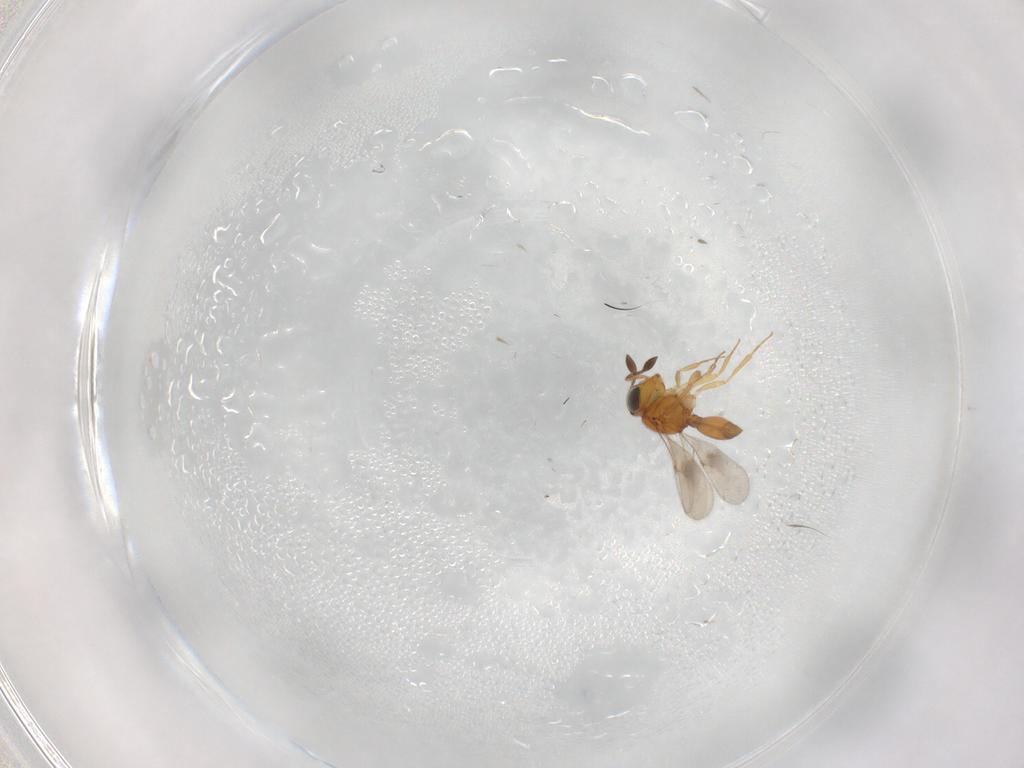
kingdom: Animalia
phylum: Arthropoda
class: Insecta
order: Hymenoptera
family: Scelionidae
